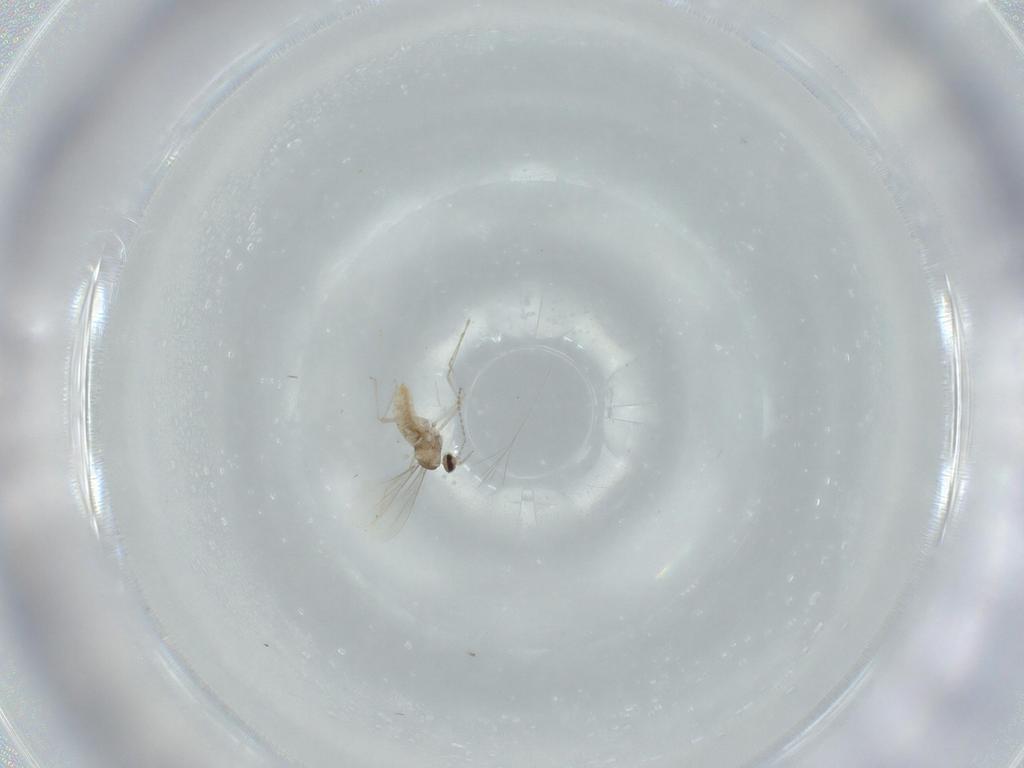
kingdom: Animalia
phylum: Arthropoda
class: Insecta
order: Diptera
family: Cecidomyiidae
